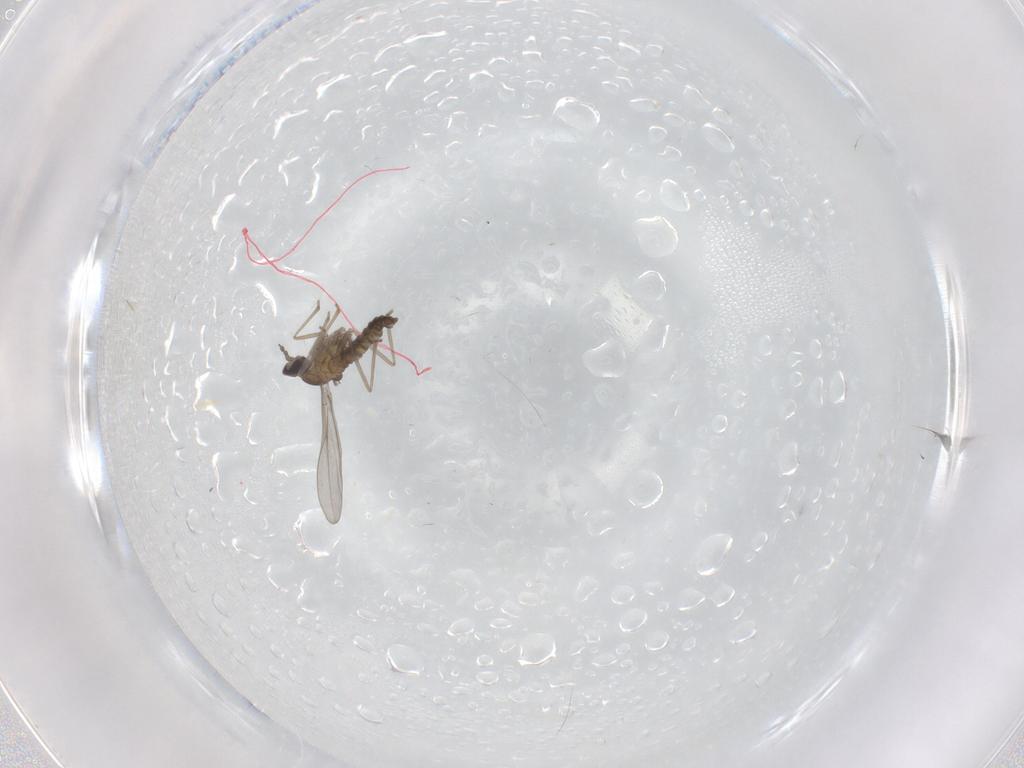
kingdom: Animalia
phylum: Arthropoda
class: Insecta
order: Diptera
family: Cecidomyiidae
